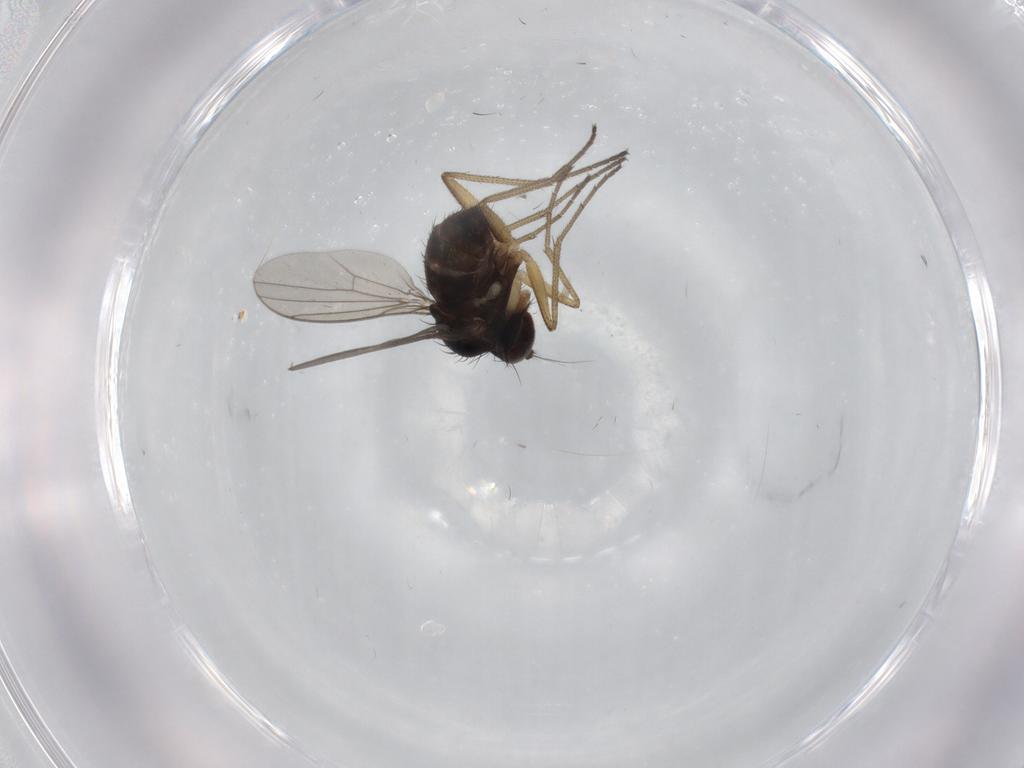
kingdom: Animalia
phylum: Arthropoda
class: Insecta
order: Diptera
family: Dolichopodidae
